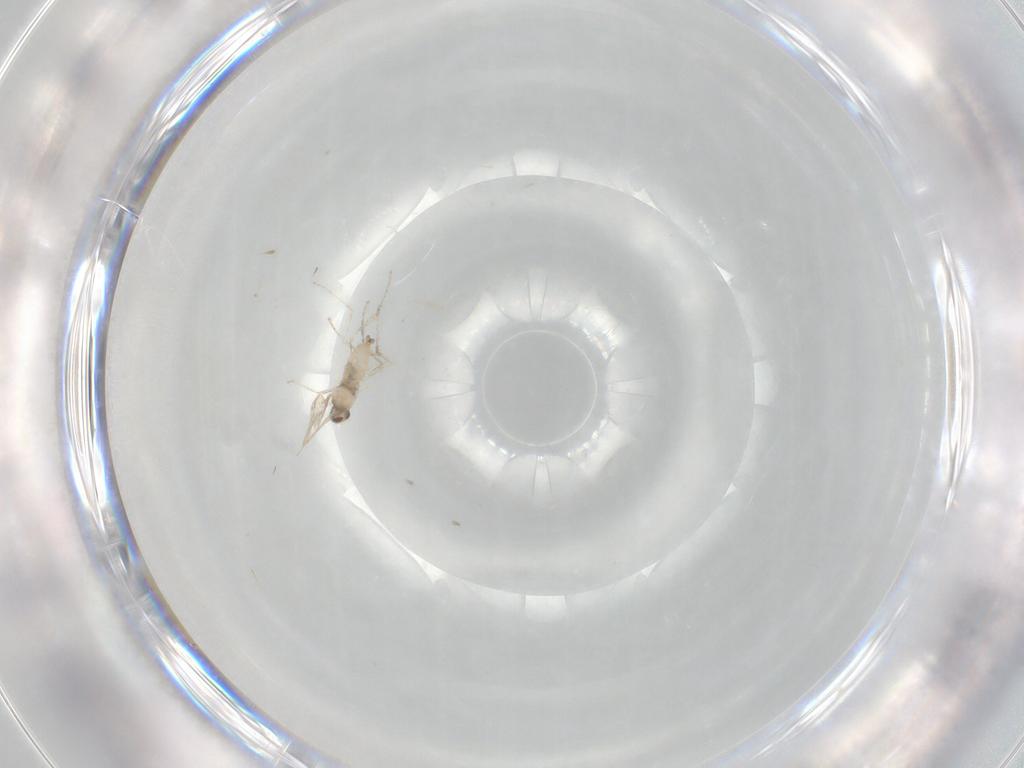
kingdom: Animalia
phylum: Arthropoda
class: Insecta
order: Diptera
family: Cecidomyiidae
